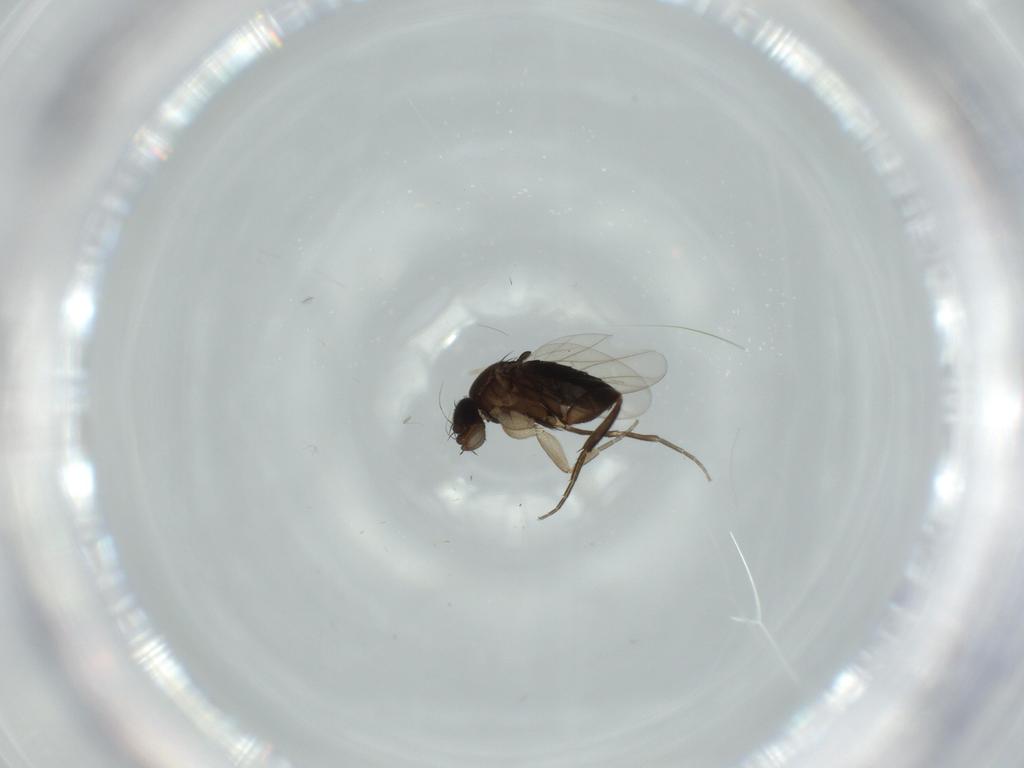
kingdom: Animalia
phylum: Arthropoda
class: Insecta
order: Diptera
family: Phoridae
